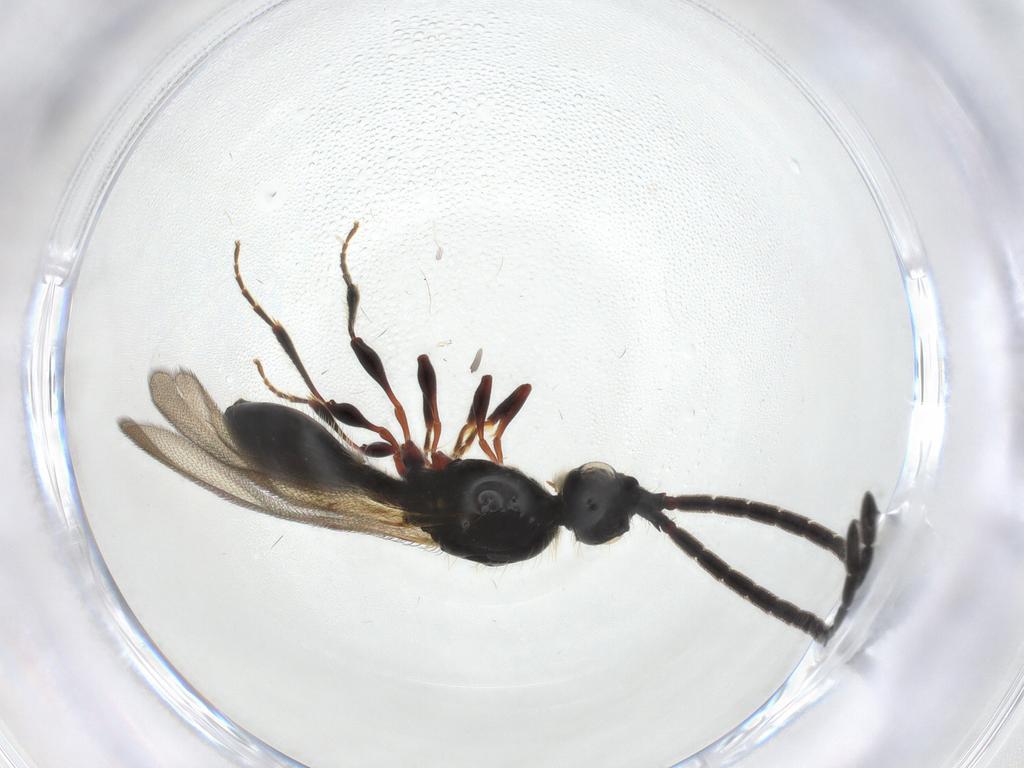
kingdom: Animalia
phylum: Arthropoda
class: Insecta
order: Hymenoptera
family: Diapriidae
